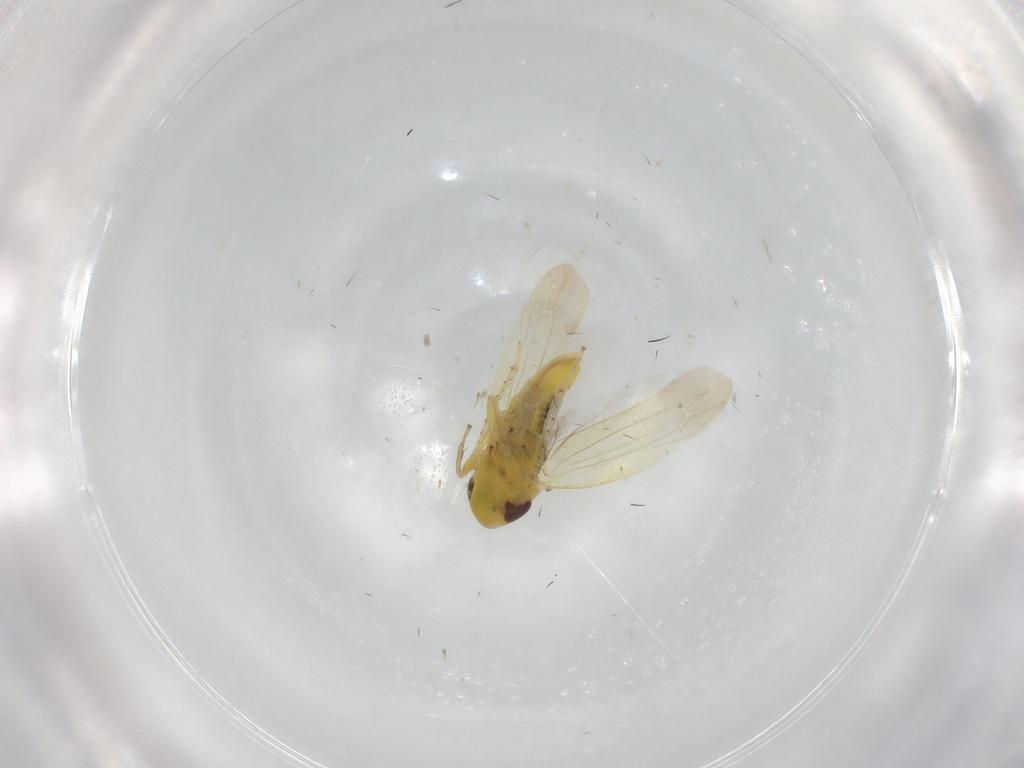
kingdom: Animalia
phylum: Arthropoda
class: Insecta
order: Hemiptera
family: Cicadellidae
